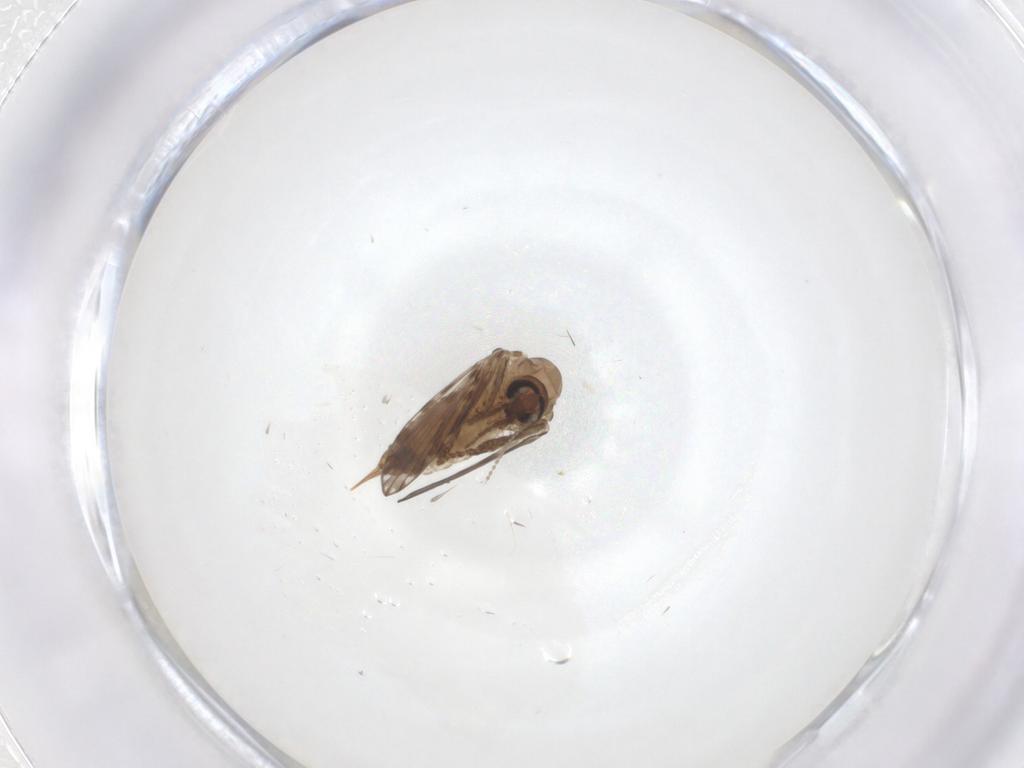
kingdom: Animalia
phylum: Arthropoda
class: Insecta
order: Diptera
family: Psychodidae
